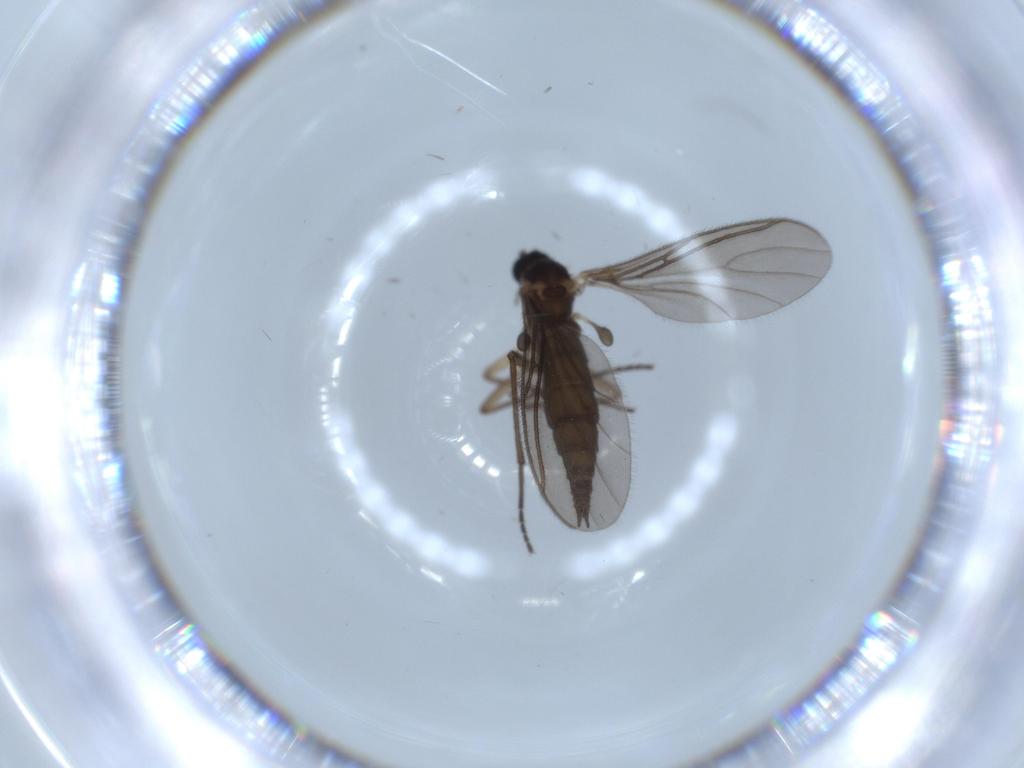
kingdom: Animalia
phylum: Arthropoda
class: Insecta
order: Diptera
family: Sciaridae
